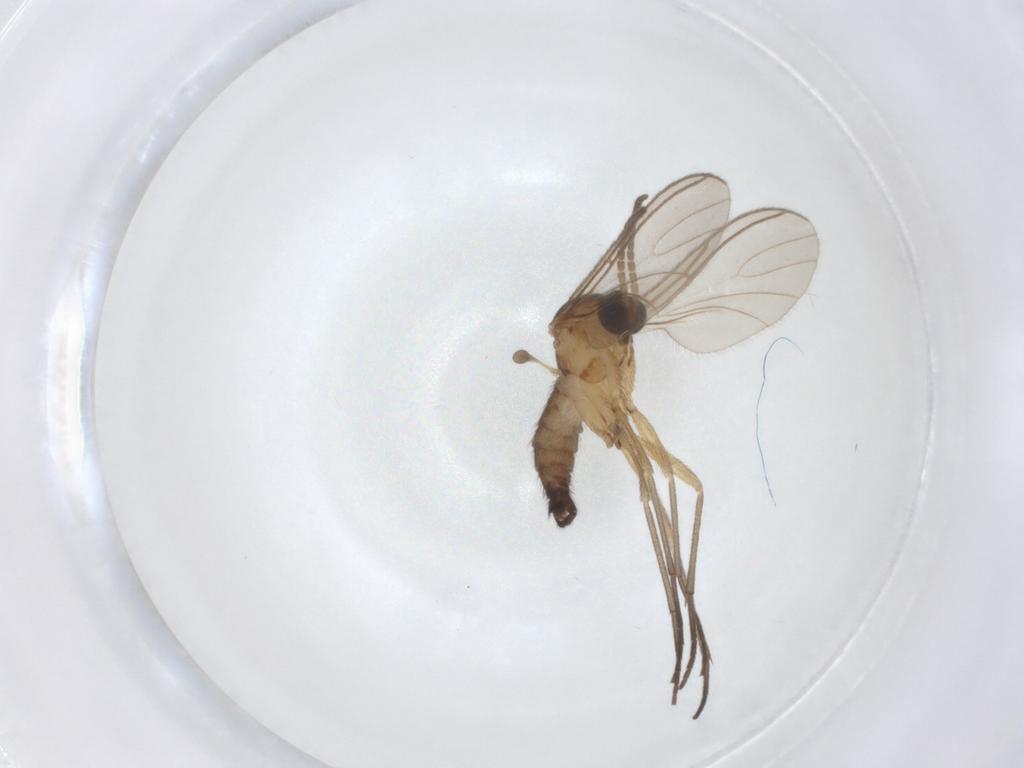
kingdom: Animalia
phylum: Arthropoda
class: Insecta
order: Diptera
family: Sciaridae
